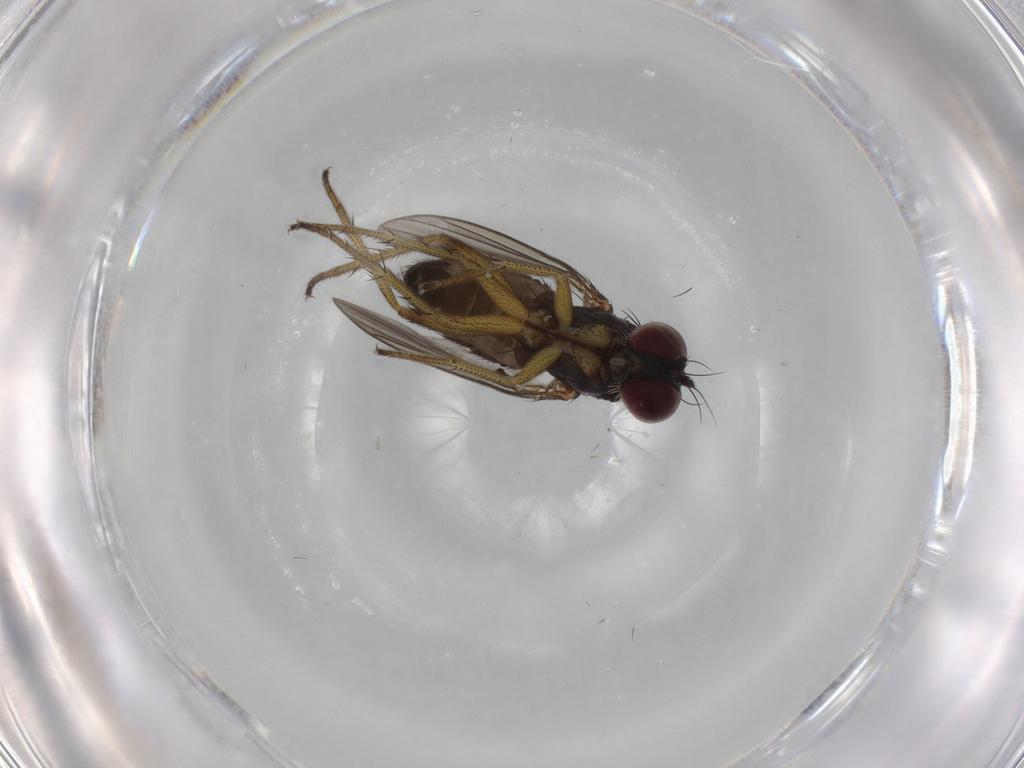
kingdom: Animalia
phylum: Arthropoda
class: Insecta
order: Diptera
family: Dolichopodidae
